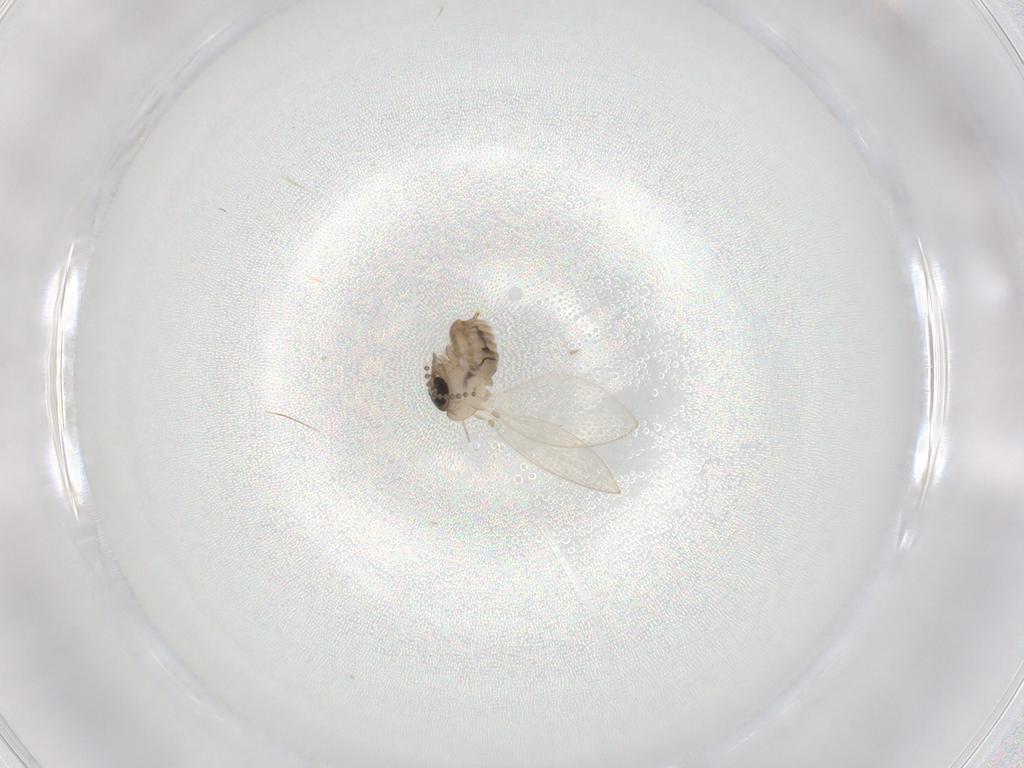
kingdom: Animalia
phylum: Arthropoda
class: Insecta
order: Diptera
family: Psychodidae
